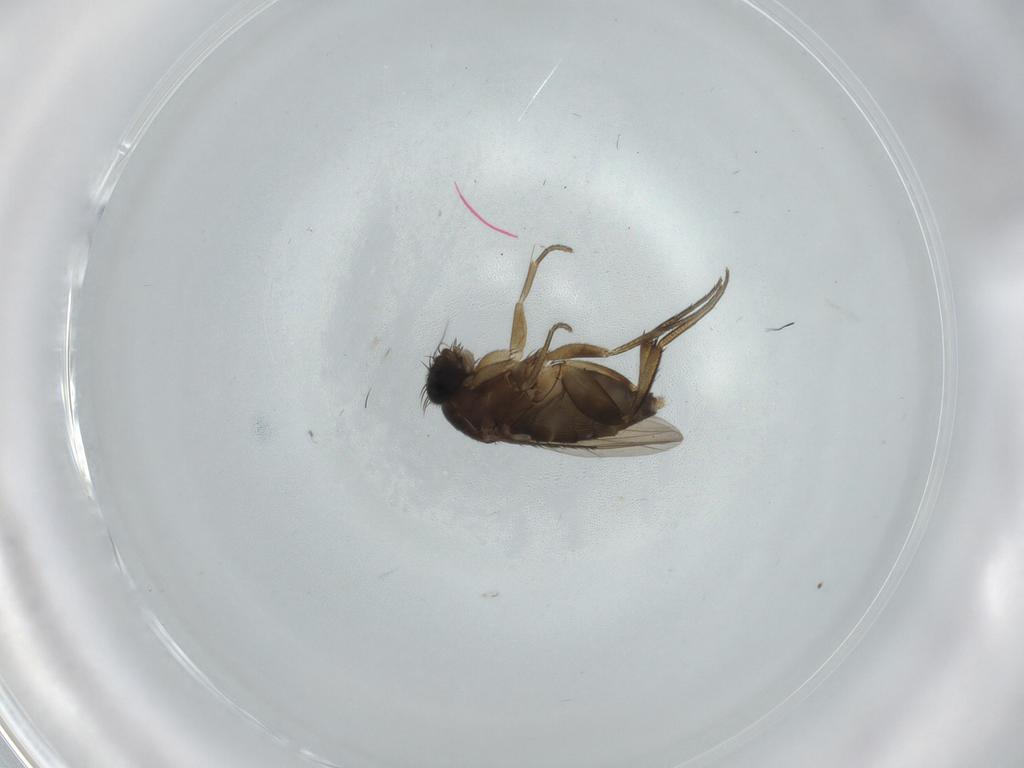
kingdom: Animalia
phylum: Arthropoda
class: Insecta
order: Diptera
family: Phoridae
